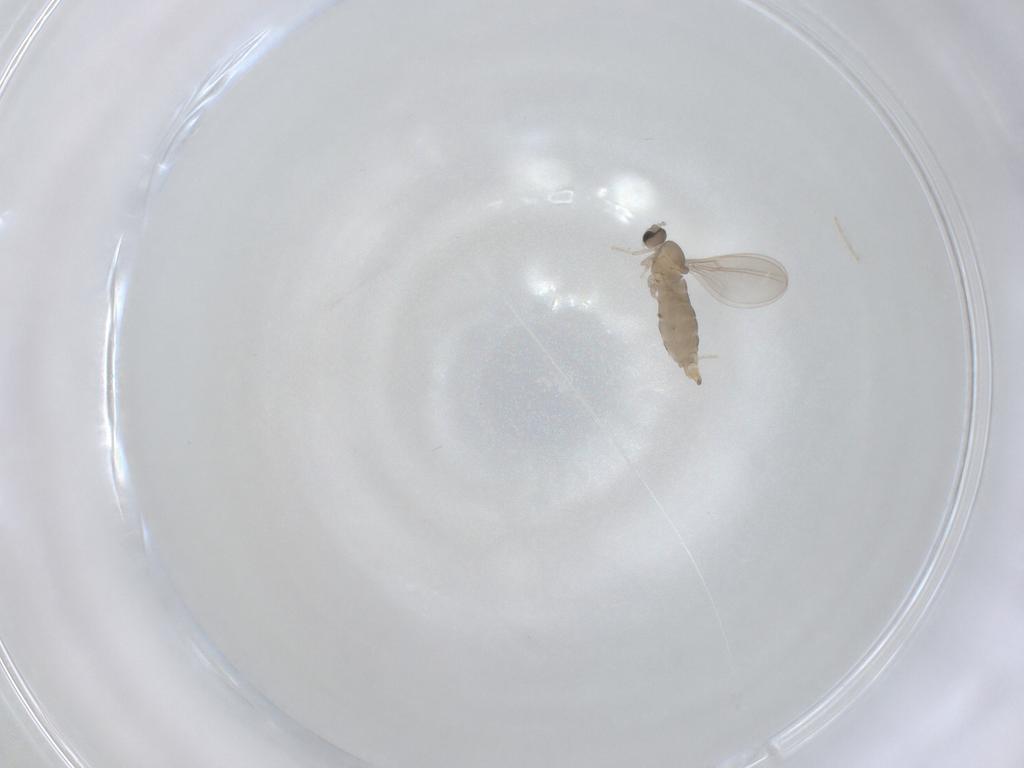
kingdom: Animalia
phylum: Arthropoda
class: Insecta
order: Diptera
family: Cecidomyiidae
